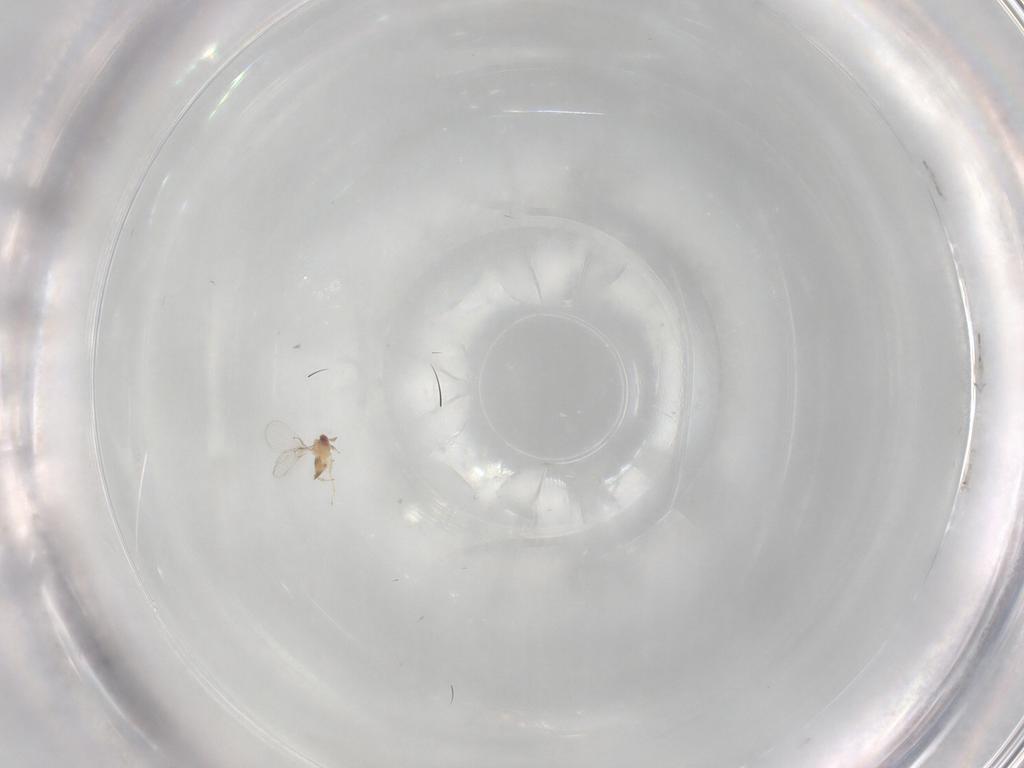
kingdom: Animalia
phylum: Arthropoda
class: Insecta
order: Hymenoptera
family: Trichogrammatidae
